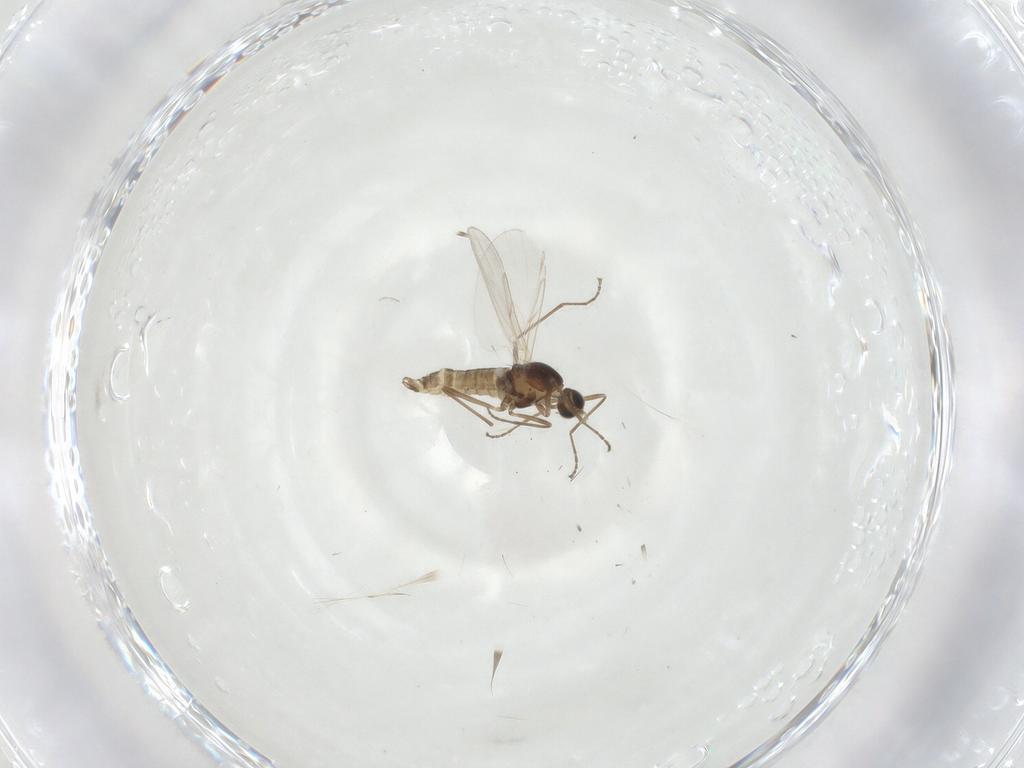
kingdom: Animalia
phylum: Arthropoda
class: Insecta
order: Diptera
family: Cecidomyiidae
